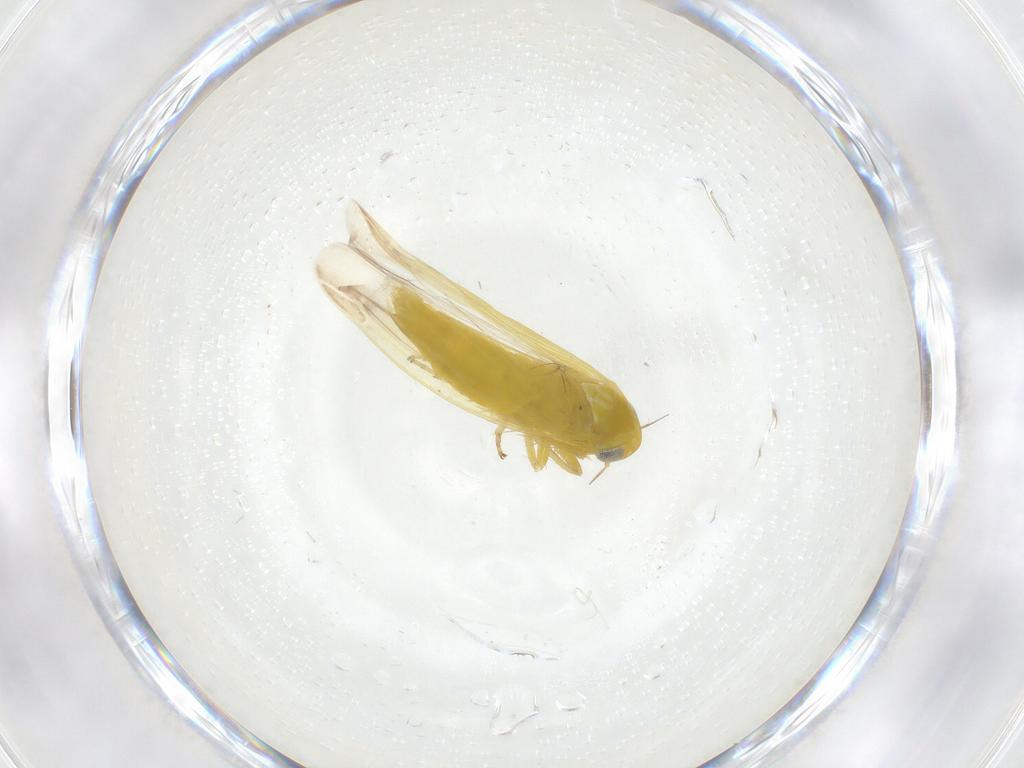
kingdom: Animalia
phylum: Arthropoda
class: Insecta
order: Hemiptera
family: Cicadellidae
